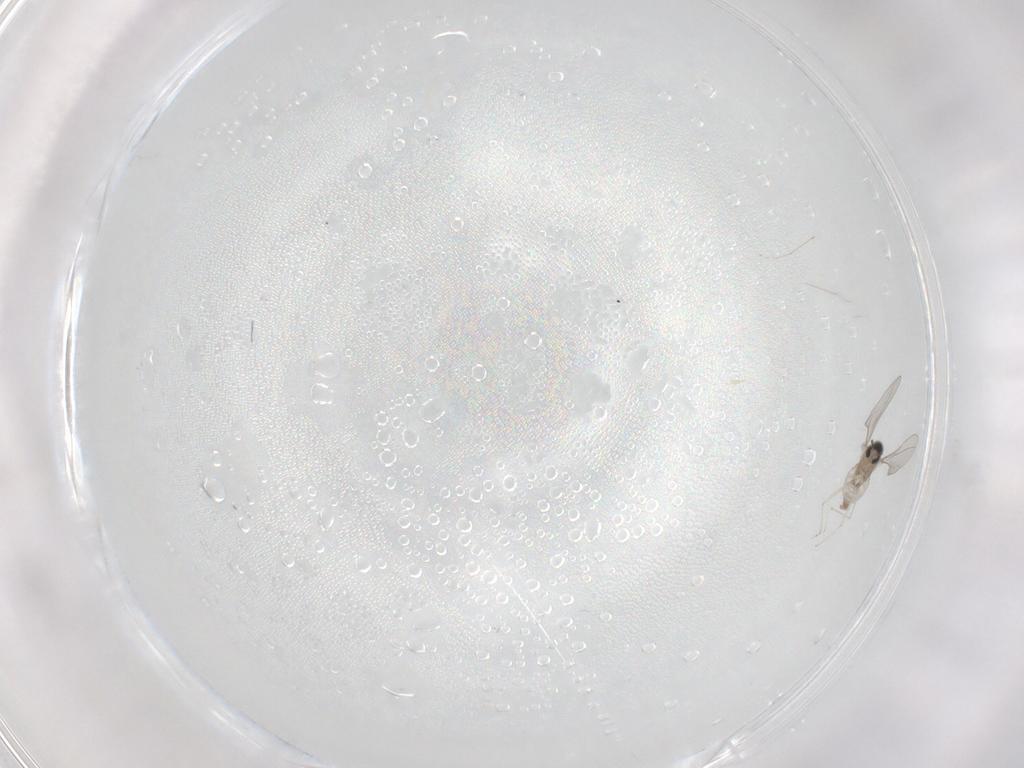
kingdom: Animalia
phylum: Arthropoda
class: Insecta
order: Diptera
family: Cecidomyiidae
